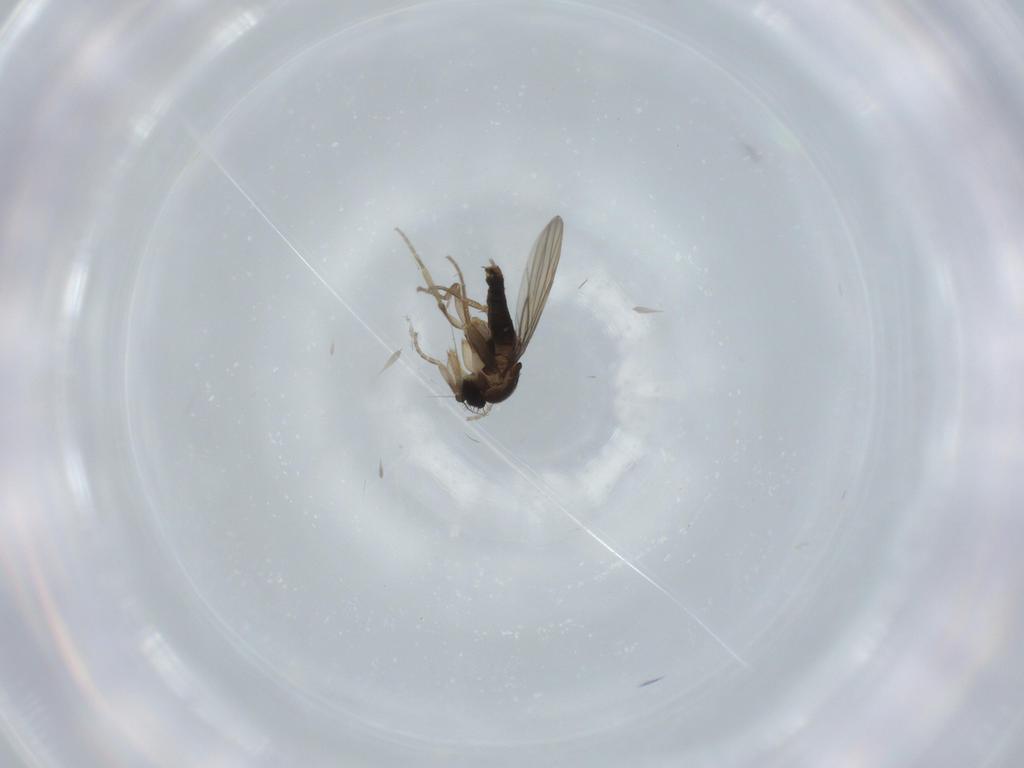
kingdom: Animalia
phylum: Arthropoda
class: Insecta
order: Diptera
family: Phoridae
